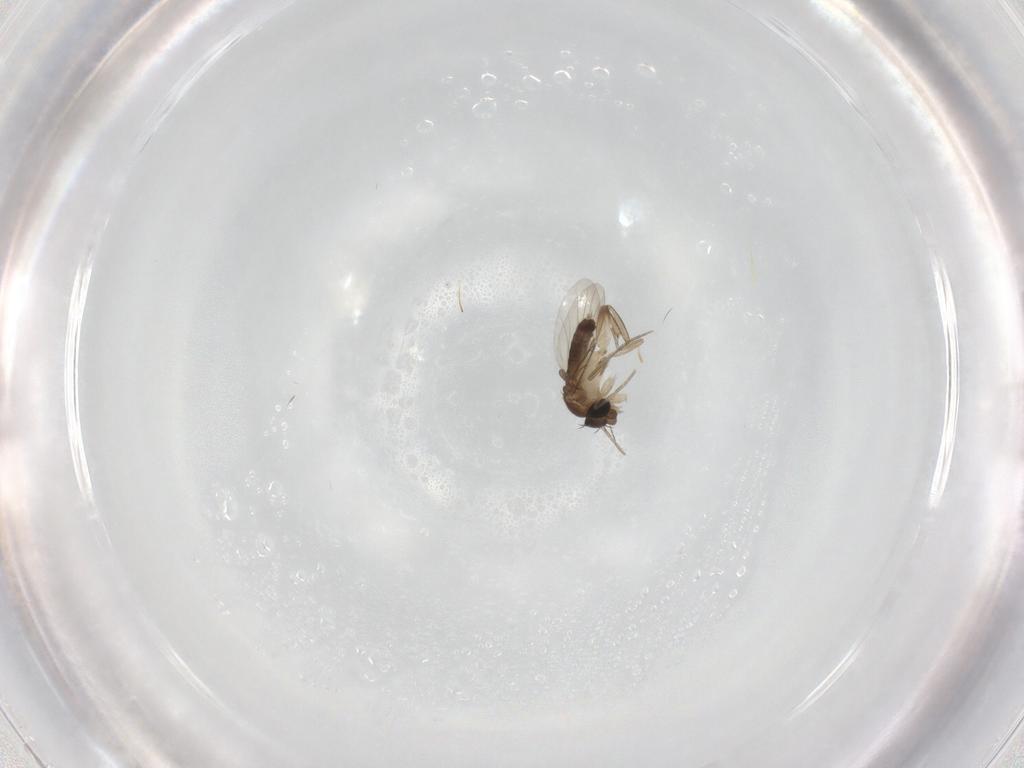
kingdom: Animalia
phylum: Arthropoda
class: Insecta
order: Diptera
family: Phoridae
